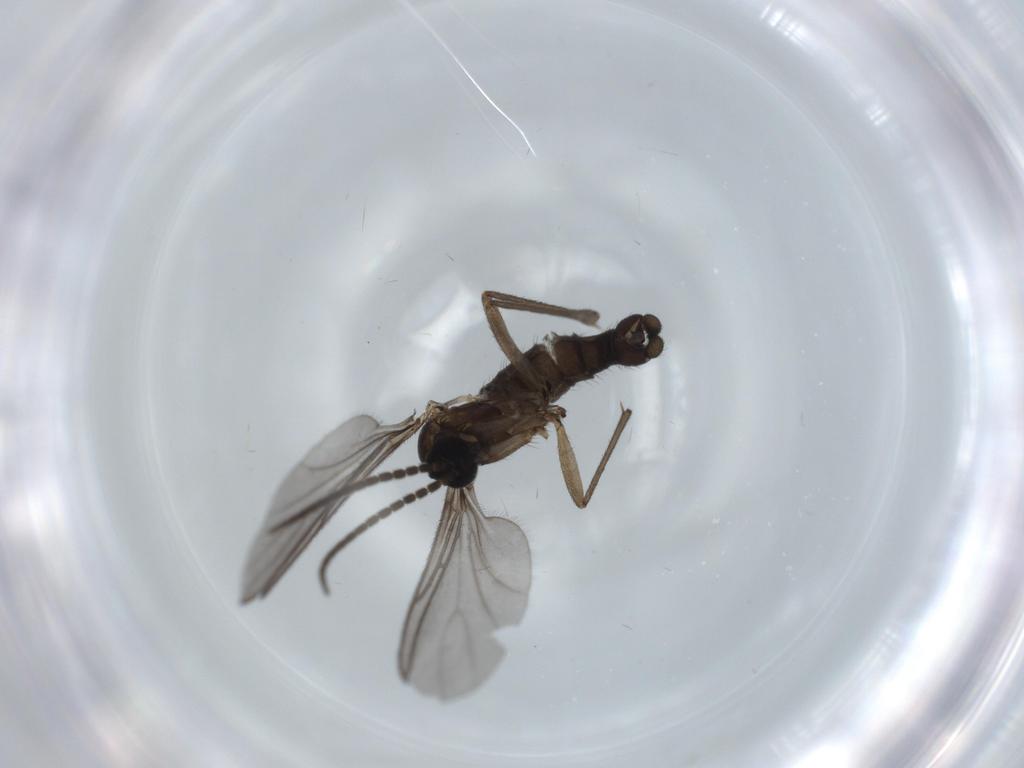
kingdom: Animalia
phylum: Arthropoda
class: Insecta
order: Diptera
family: Sciaridae
